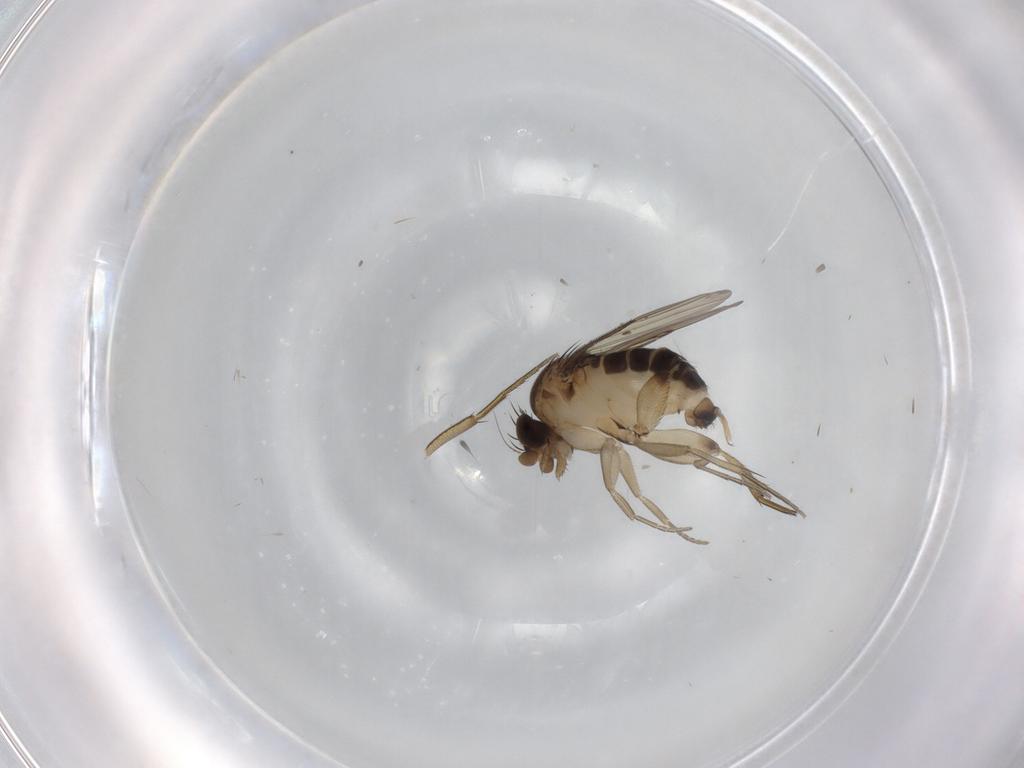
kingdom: Animalia
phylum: Arthropoda
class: Insecta
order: Diptera
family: Phoridae
